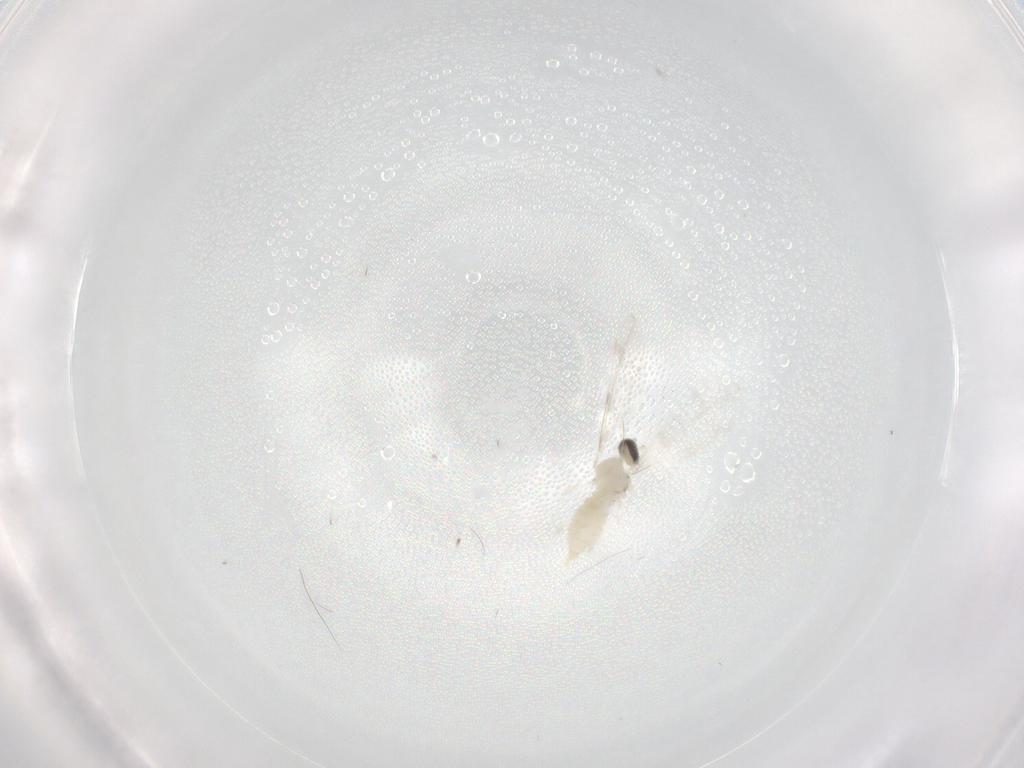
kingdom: Animalia
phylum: Arthropoda
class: Insecta
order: Diptera
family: Cecidomyiidae
